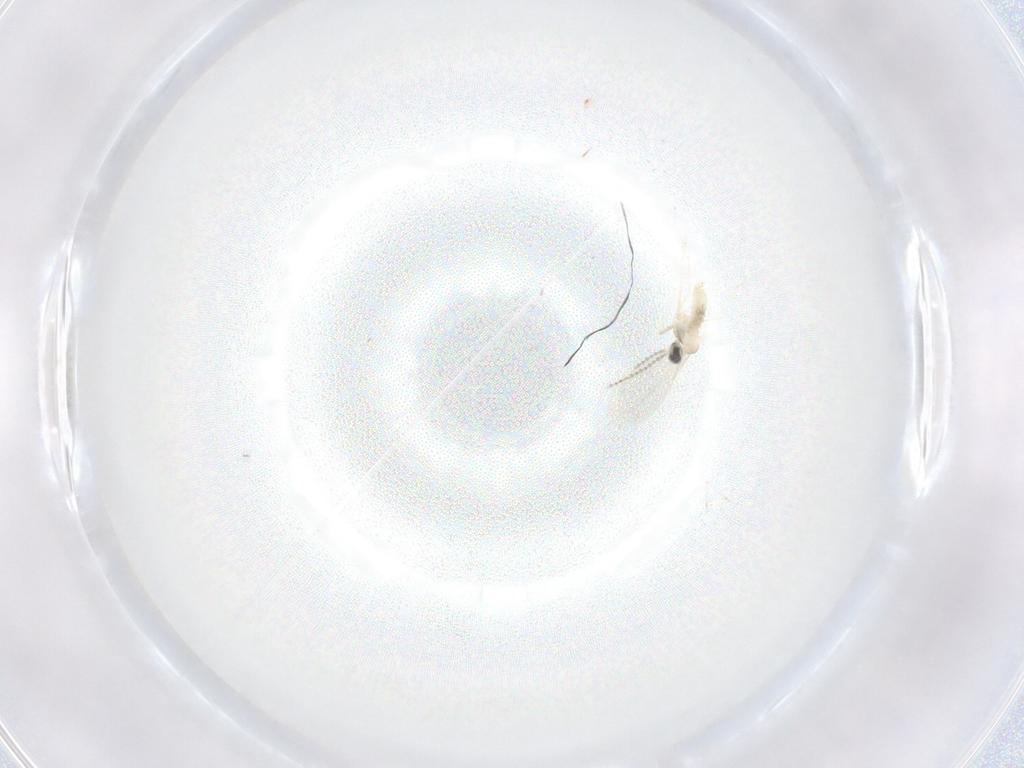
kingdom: Animalia
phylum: Arthropoda
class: Insecta
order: Diptera
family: Cecidomyiidae
